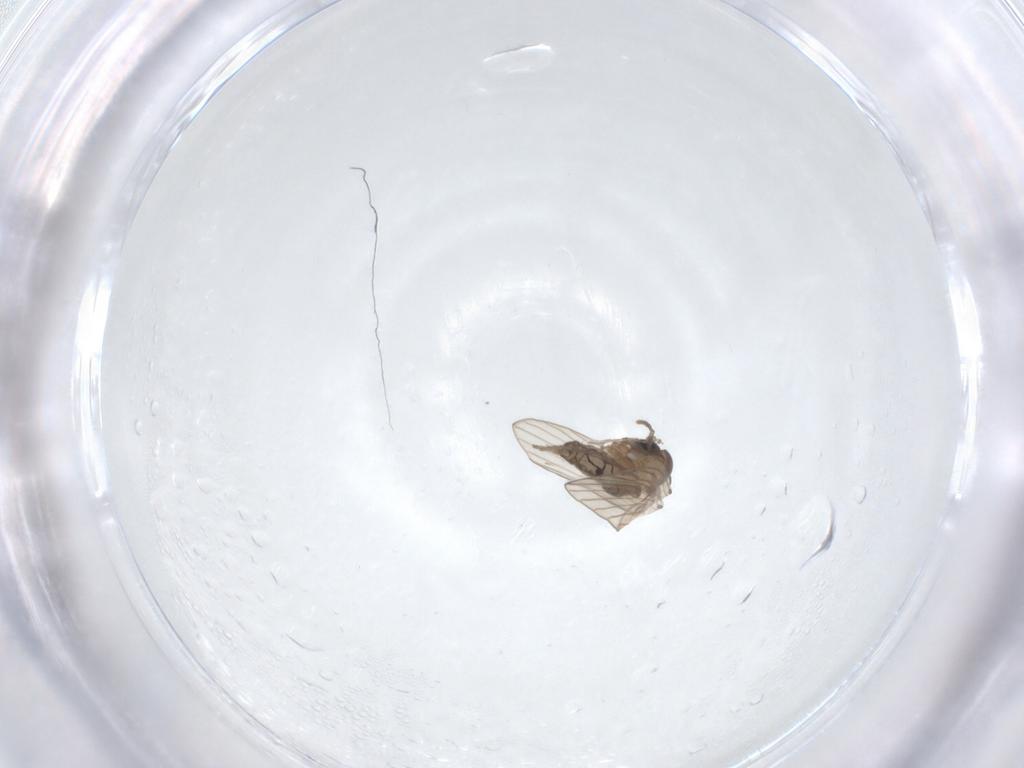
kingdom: Animalia
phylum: Arthropoda
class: Insecta
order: Diptera
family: Psychodidae
